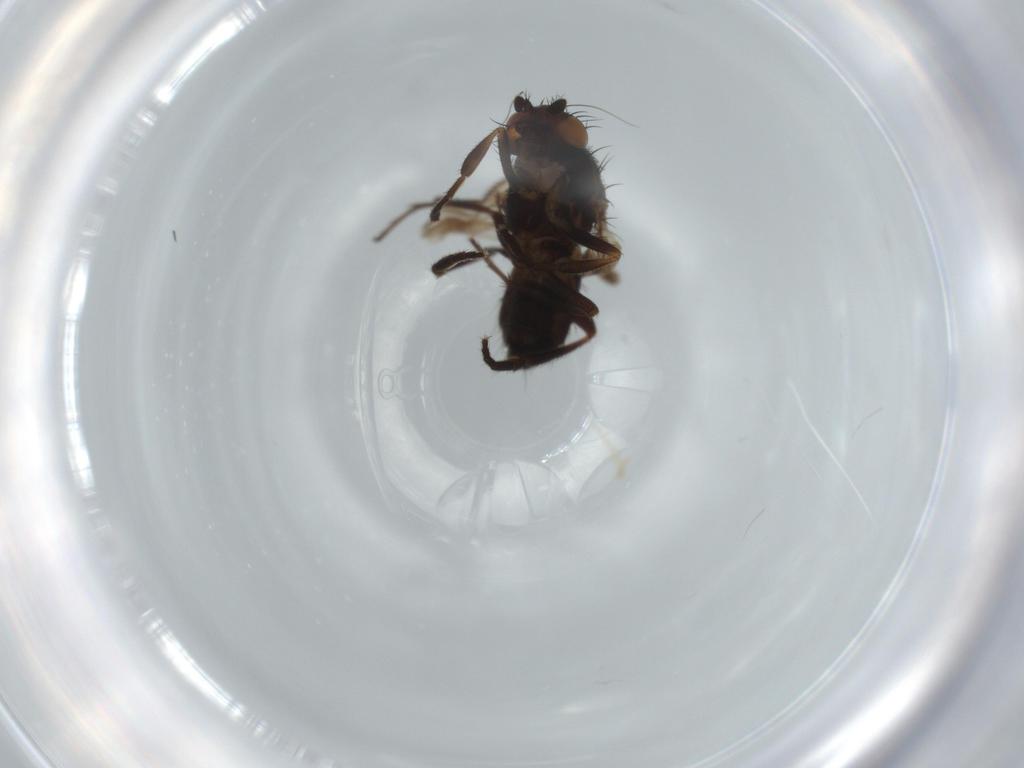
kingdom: Animalia
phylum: Arthropoda
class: Insecta
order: Diptera
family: Sphaeroceridae
